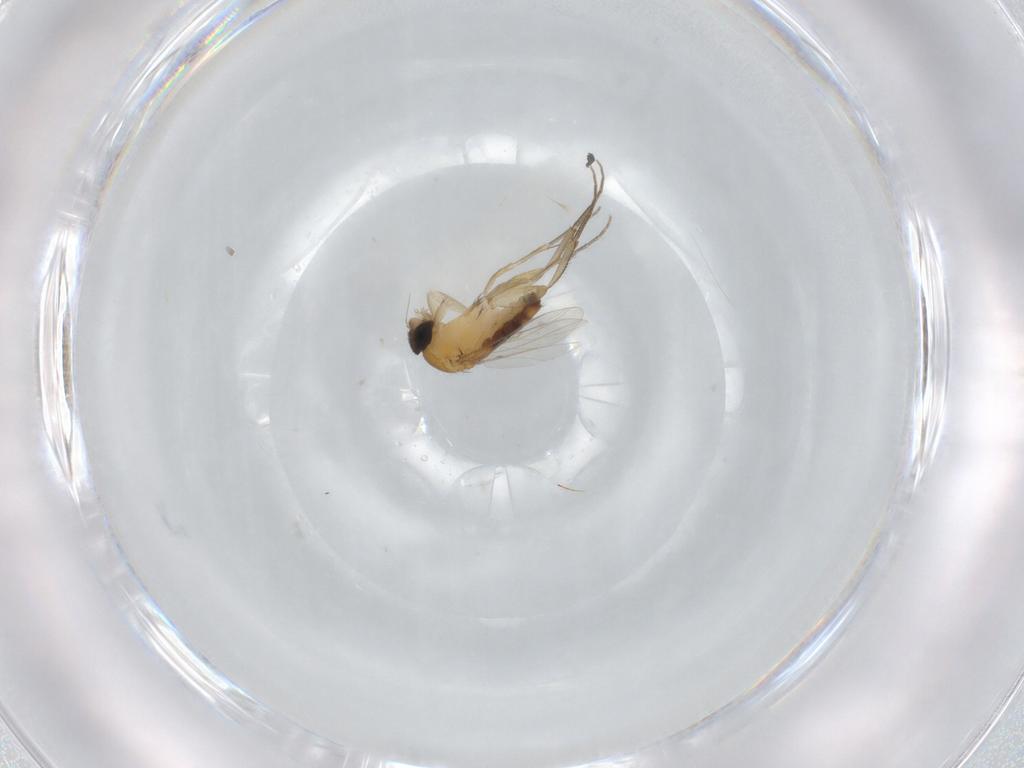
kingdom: Animalia
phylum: Arthropoda
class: Insecta
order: Diptera
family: Phoridae
